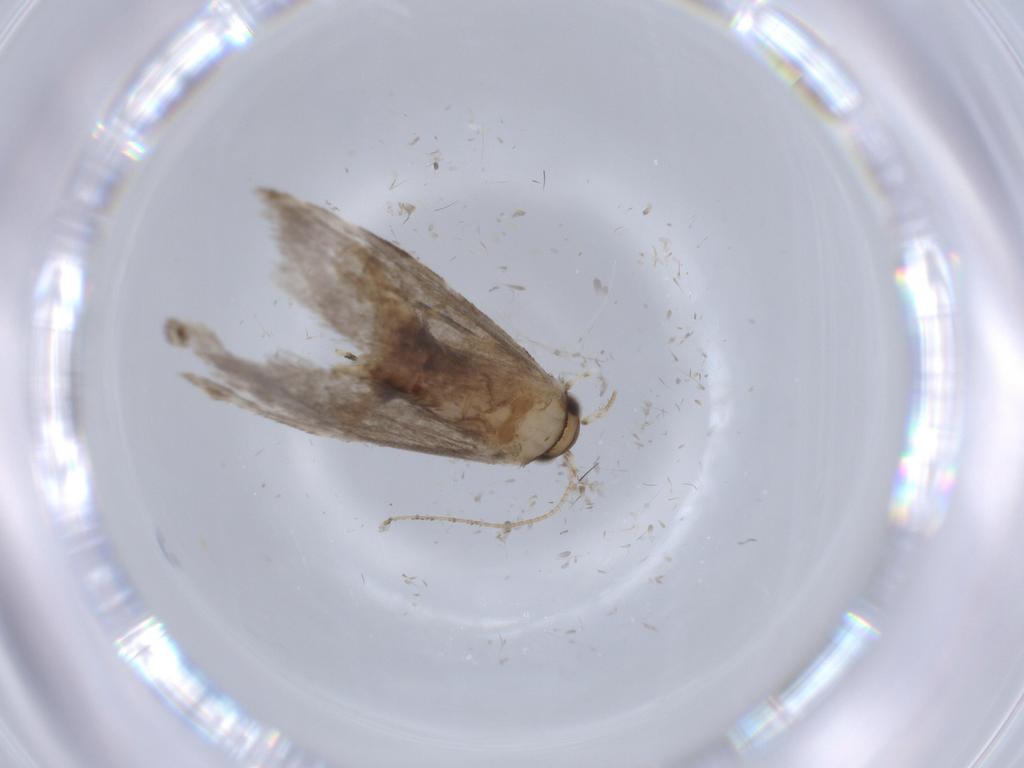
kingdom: Animalia
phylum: Arthropoda
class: Insecta
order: Lepidoptera
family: Tineidae
